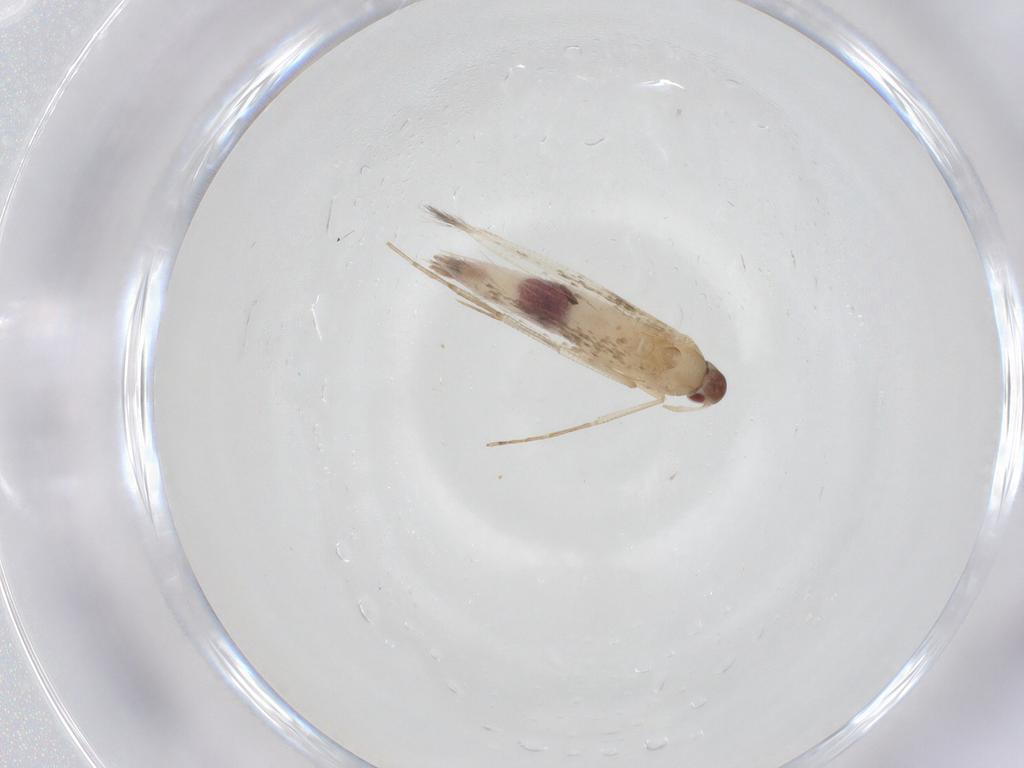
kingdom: Animalia
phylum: Arthropoda
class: Insecta
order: Lepidoptera
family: Cosmopterigidae
